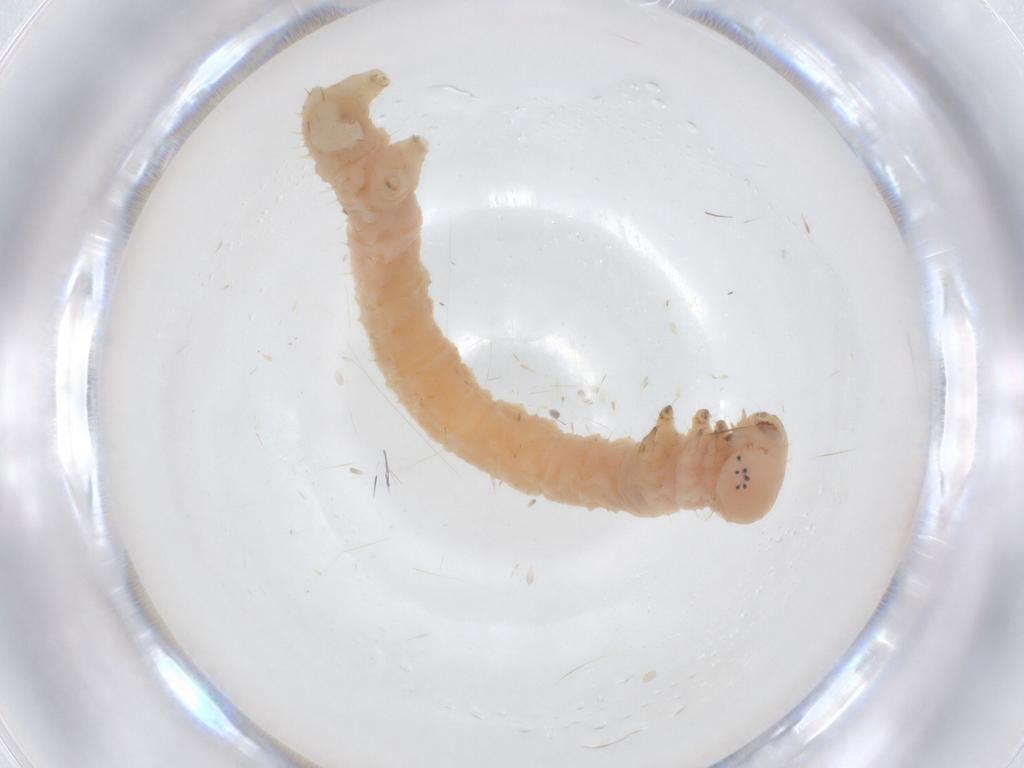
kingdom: Animalia
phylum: Arthropoda
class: Insecta
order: Lepidoptera
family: Geometridae
